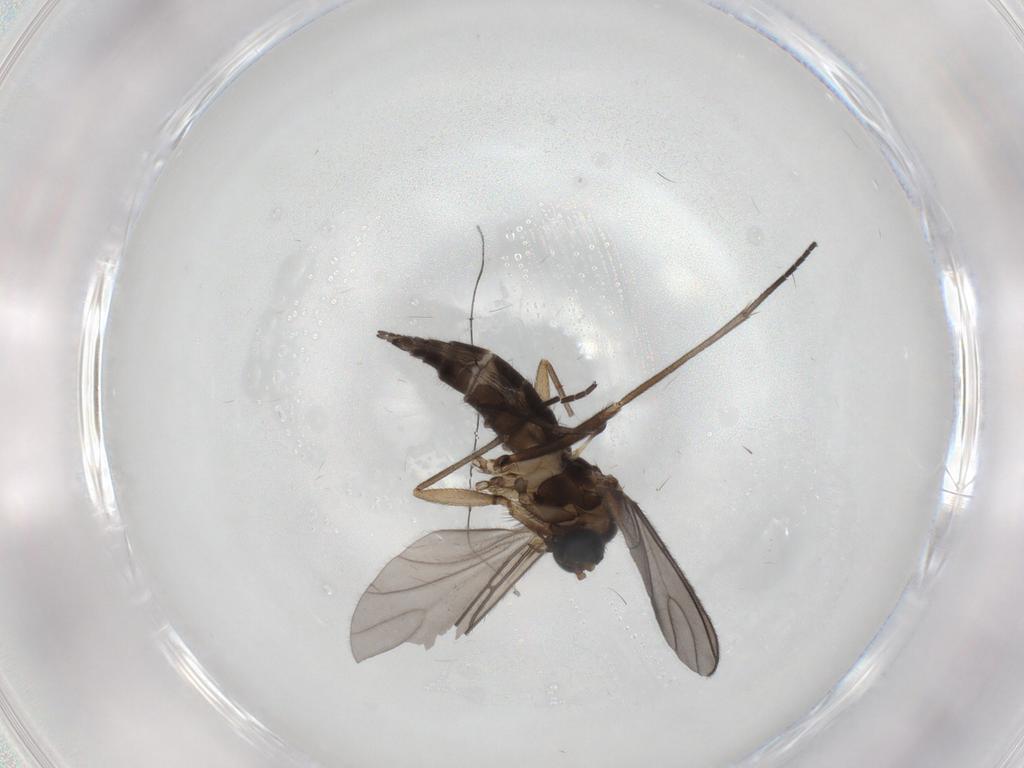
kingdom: Animalia
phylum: Arthropoda
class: Insecta
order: Diptera
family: Sciaridae
